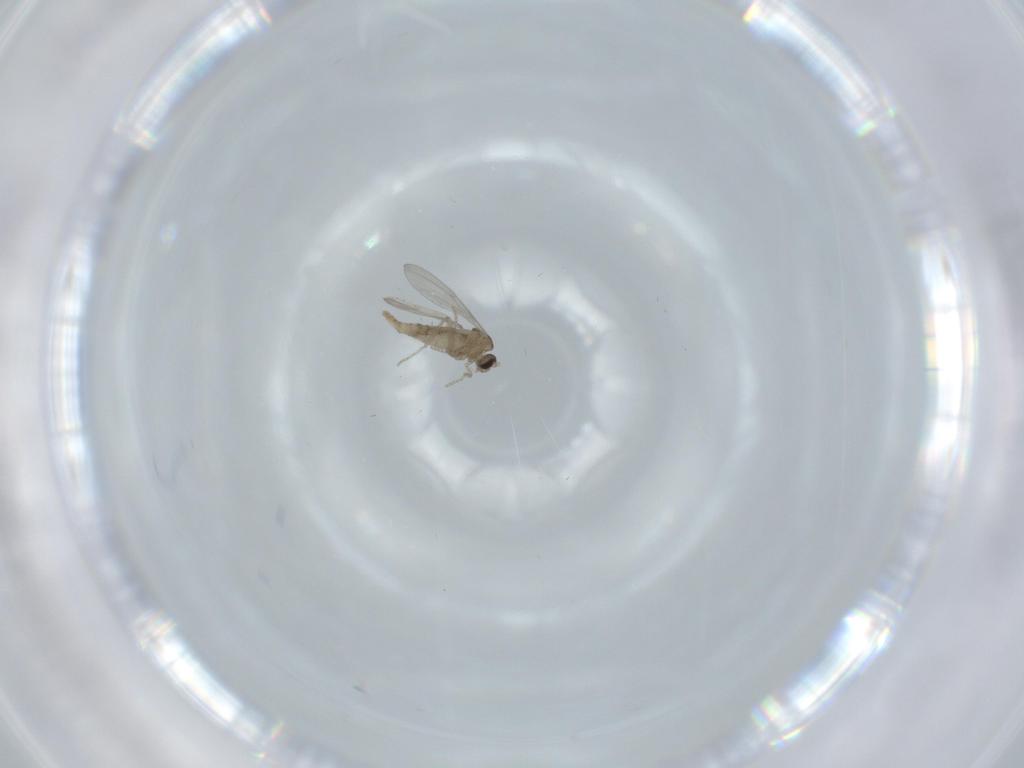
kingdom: Animalia
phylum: Arthropoda
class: Insecta
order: Diptera
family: Cecidomyiidae
